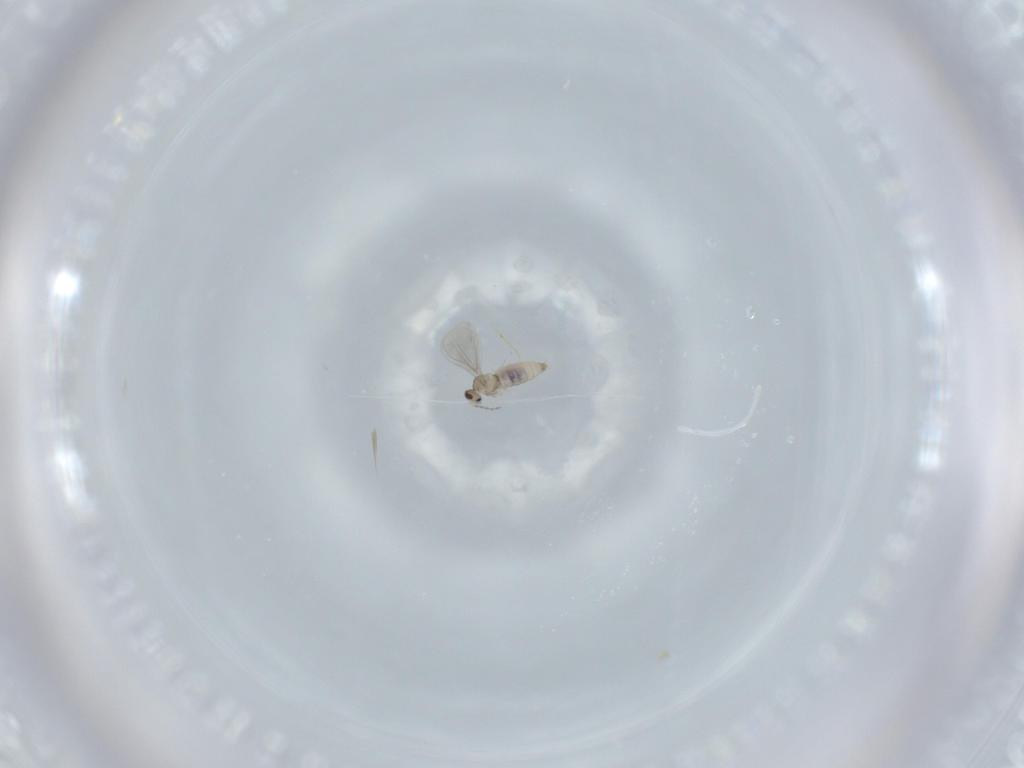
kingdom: Animalia
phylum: Arthropoda
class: Insecta
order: Diptera
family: Cecidomyiidae
